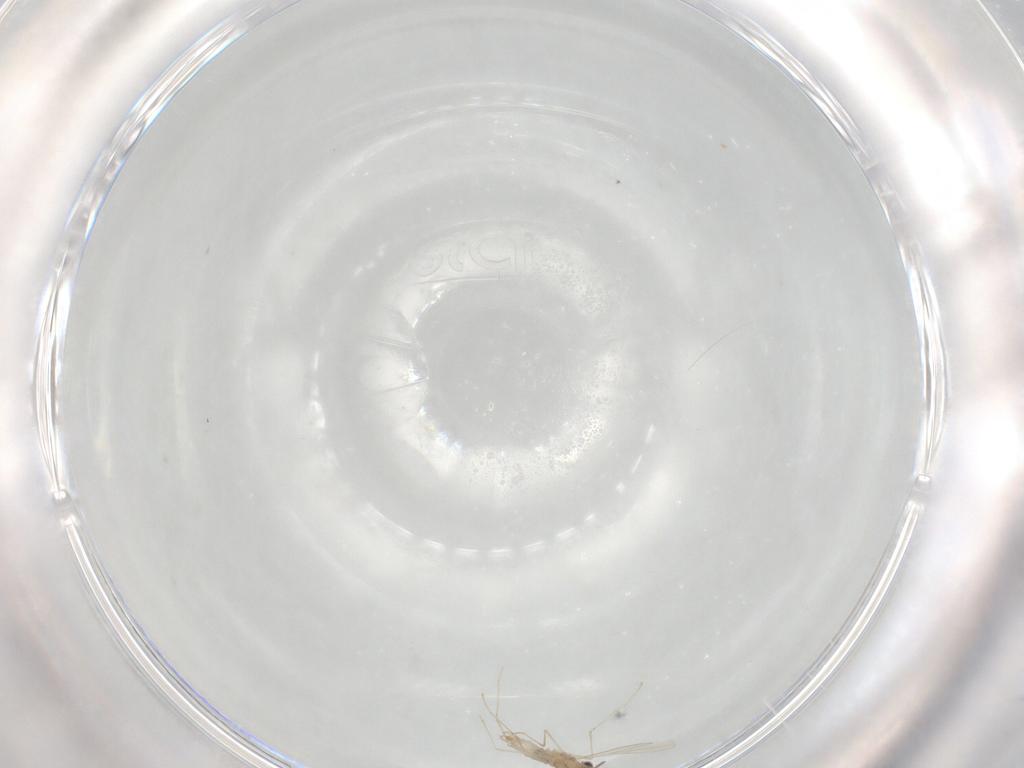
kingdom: Animalia
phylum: Arthropoda
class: Insecta
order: Diptera
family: Cecidomyiidae
